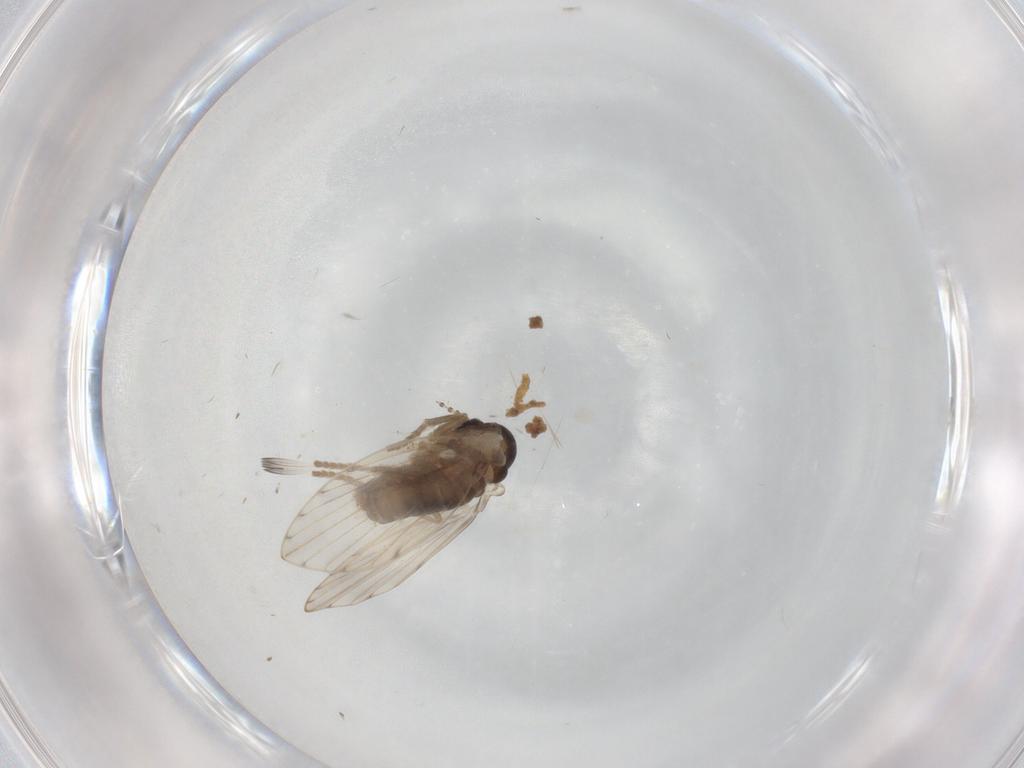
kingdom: Animalia
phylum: Arthropoda
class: Insecta
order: Diptera
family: Psychodidae
